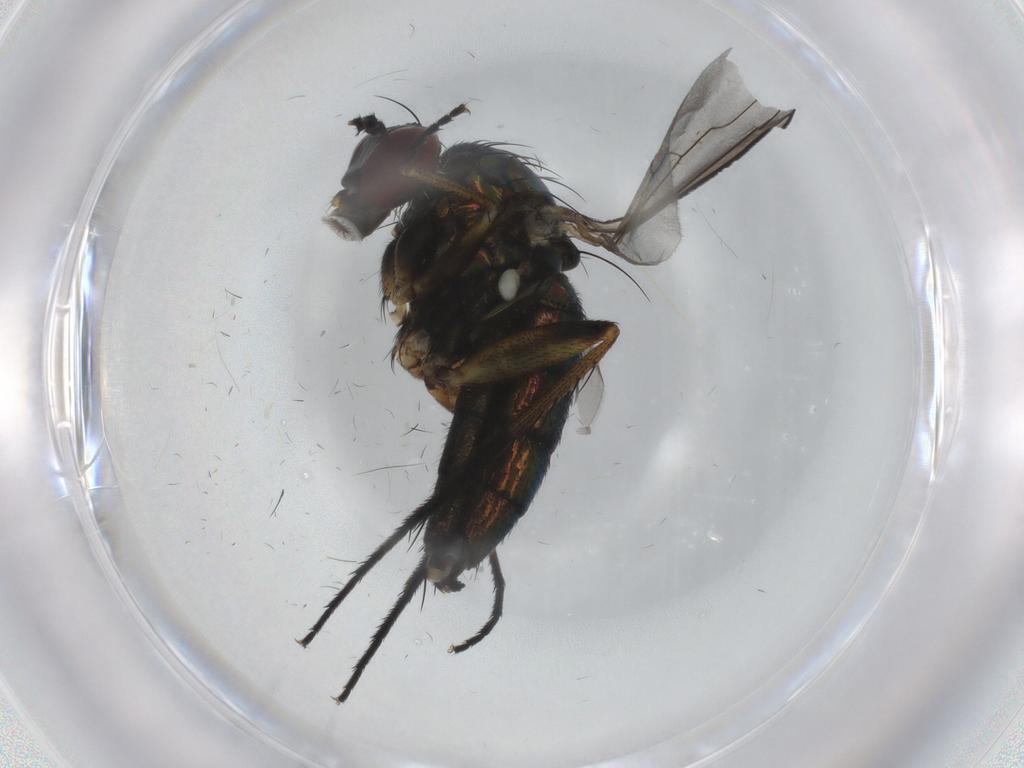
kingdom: Animalia
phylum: Arthropoda
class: Insecta
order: Diptera
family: Dolichopodidae
